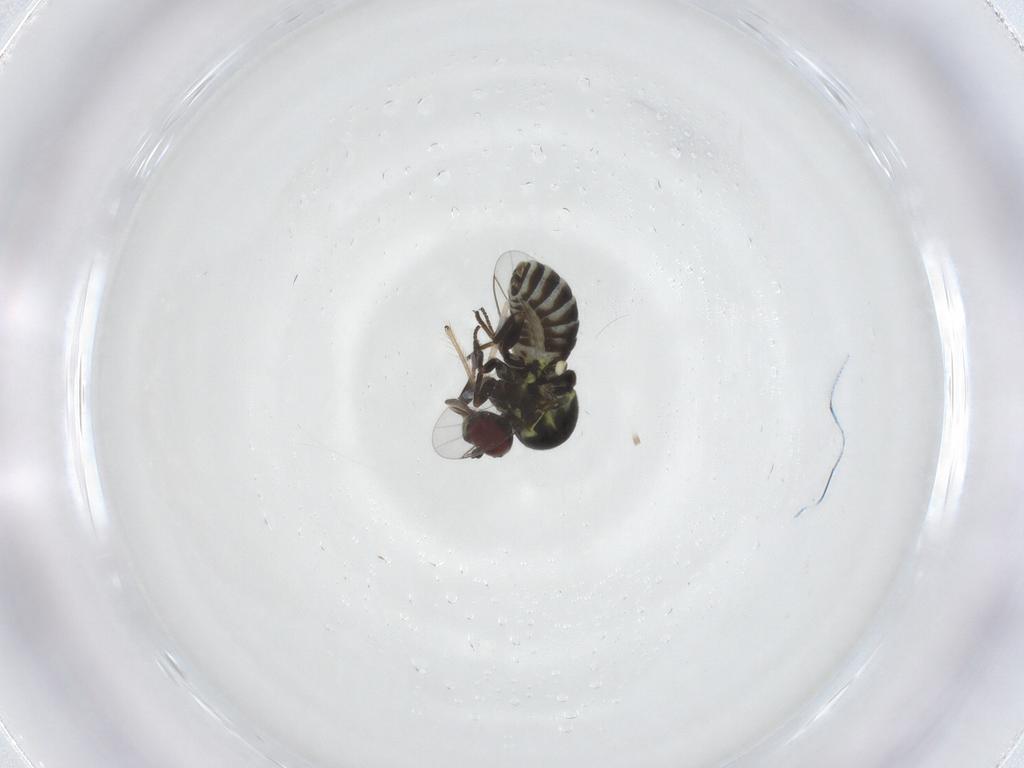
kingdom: Animalia
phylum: Arthropoda
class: Insecta
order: Diptera
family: Mythicomyiidae
